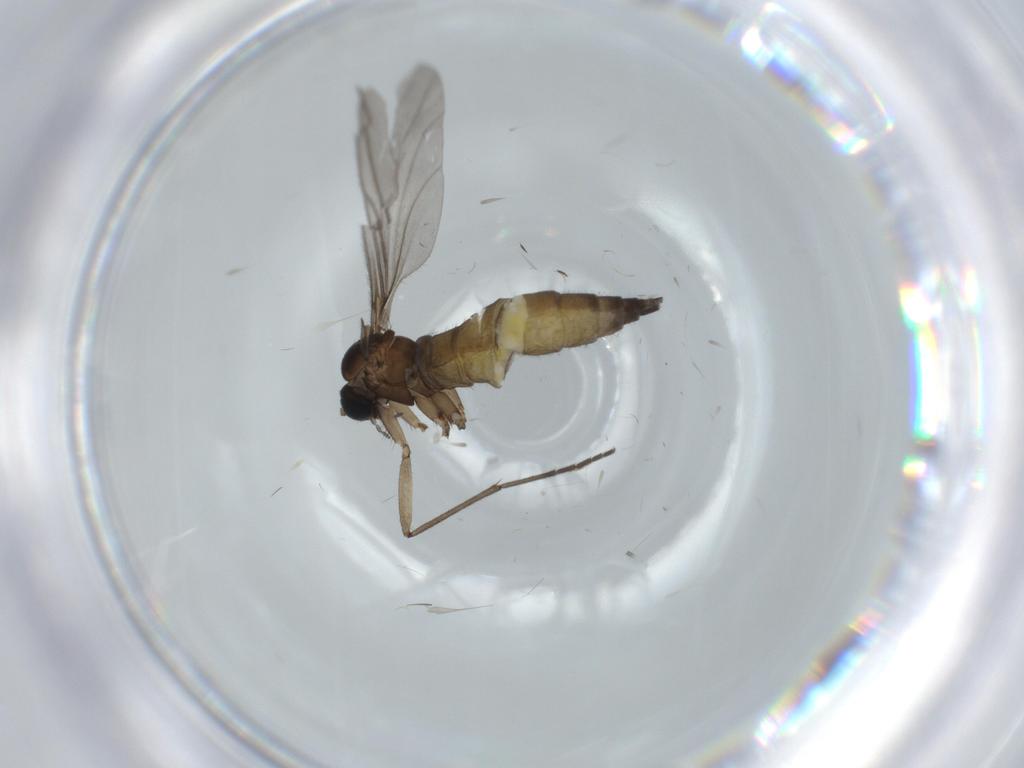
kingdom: Animalia
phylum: Arthropoda
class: Insecta
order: Diptera
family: Sciaridae
